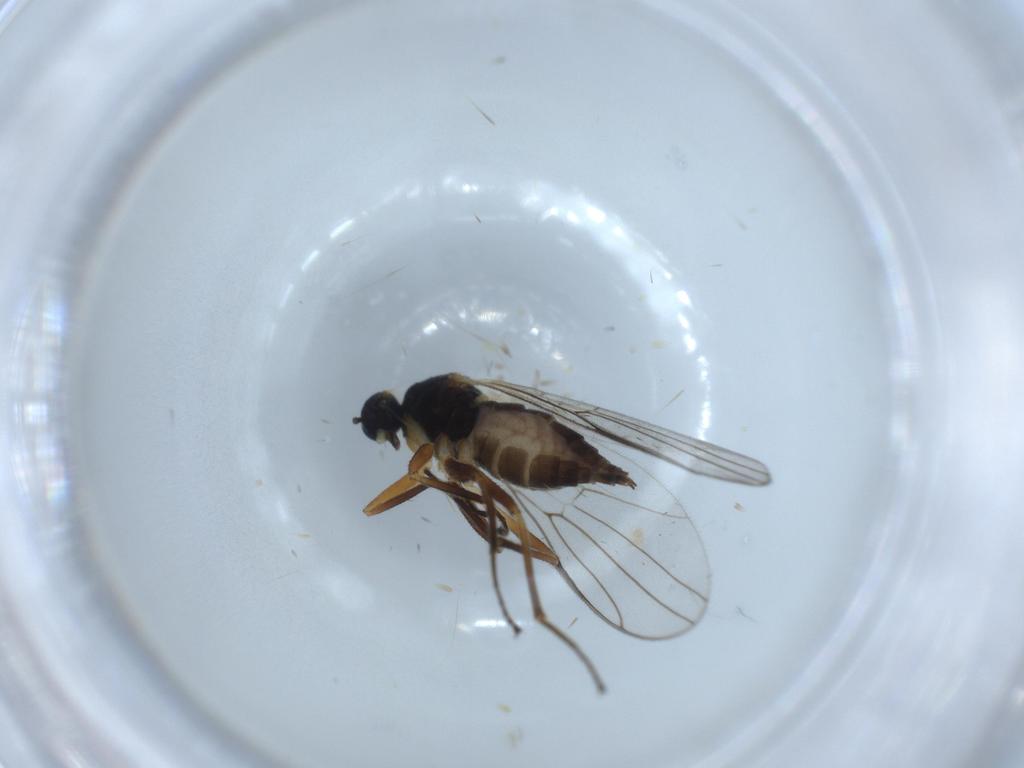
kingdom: Animalia
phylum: Arthropoda
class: Insecta
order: Diptera
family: Hybotidae
